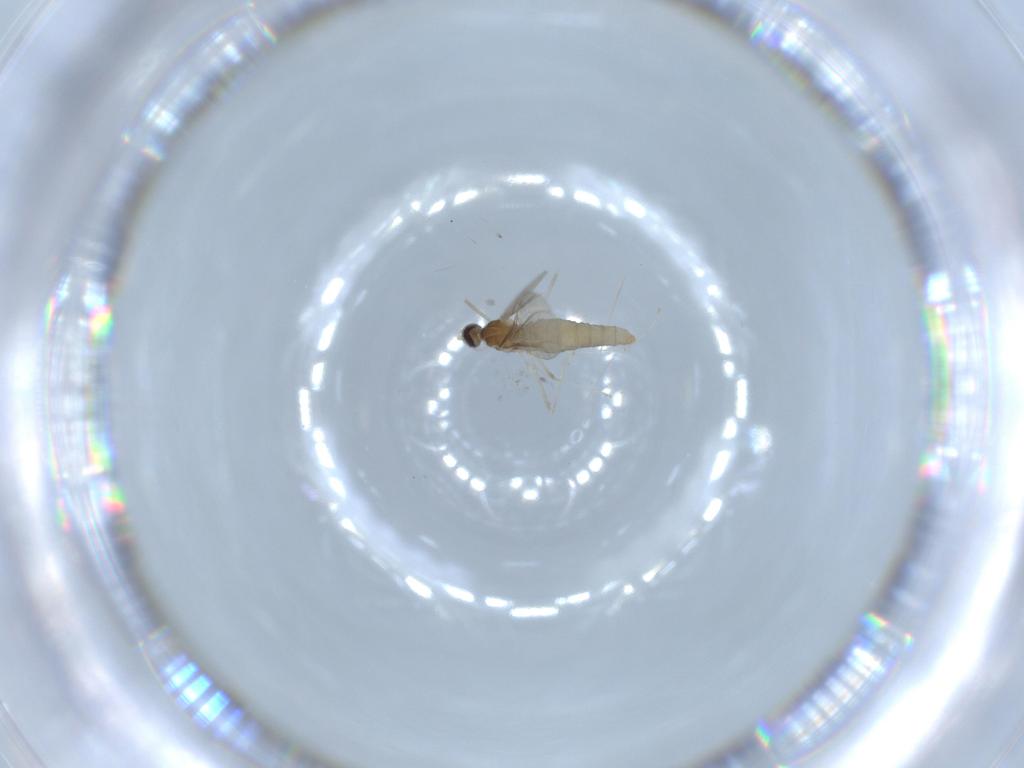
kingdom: Animalia
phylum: Arthropoda
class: Insecta
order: Diptera
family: Cecidomyiidae
